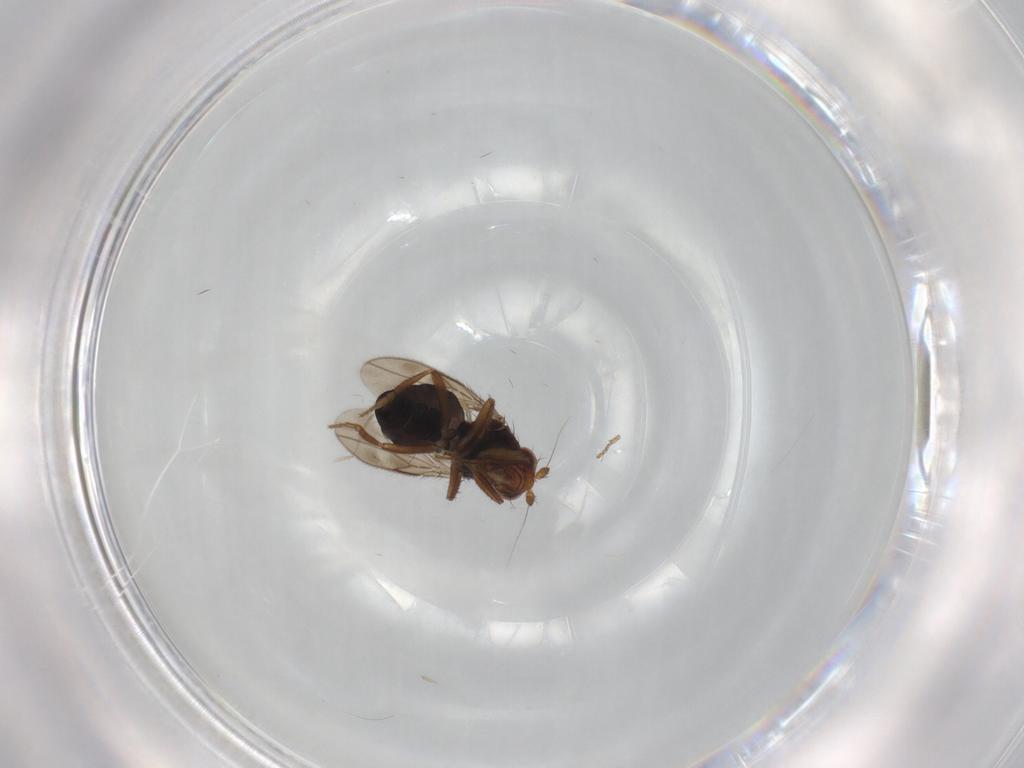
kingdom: Animalia
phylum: Arthropoda
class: Insecta
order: Diptera
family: Sphaeroceridae
